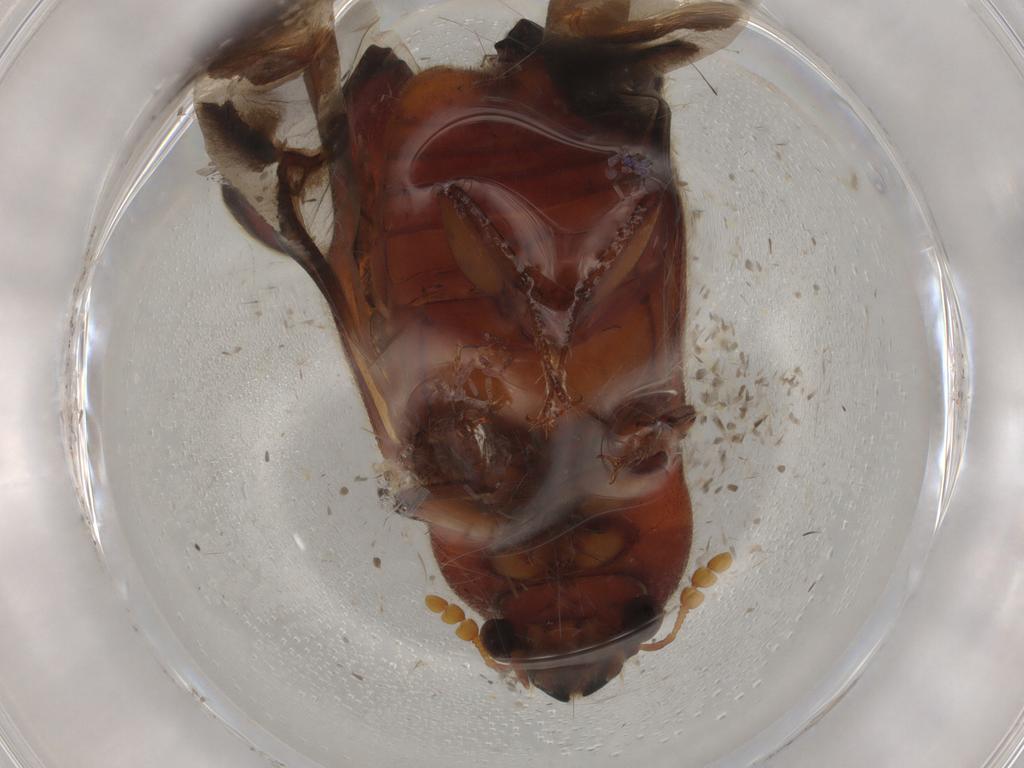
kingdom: Animalia
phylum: Arthropoda
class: Insecta
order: Coleoptera
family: Bostrichidae
